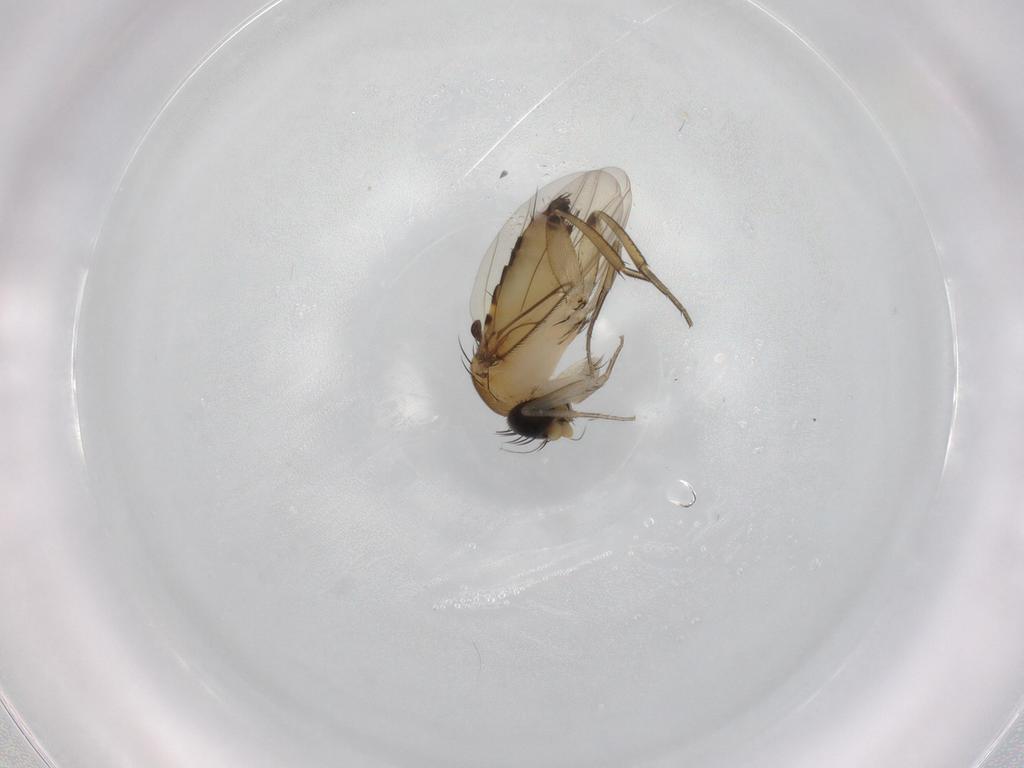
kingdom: Animalia
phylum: Arthropoda
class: Insecta
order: Diptera
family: Phoridae
